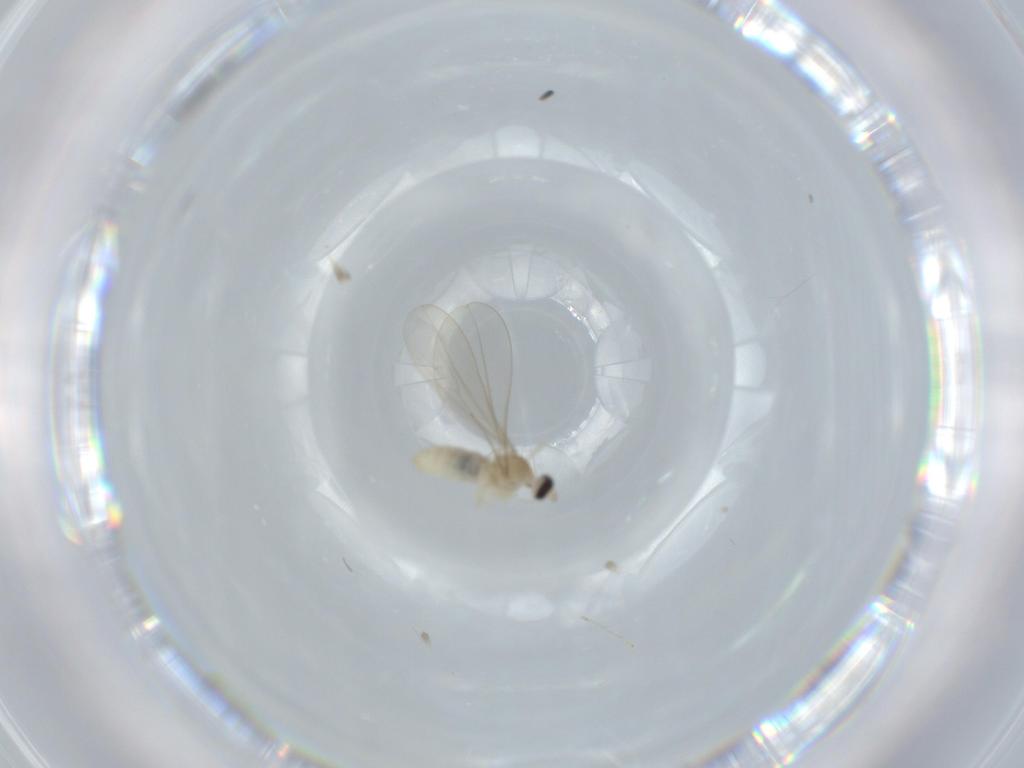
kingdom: Animalia
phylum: Arthropoda
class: Insecta
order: Diptera
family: Cecidomyiidae
